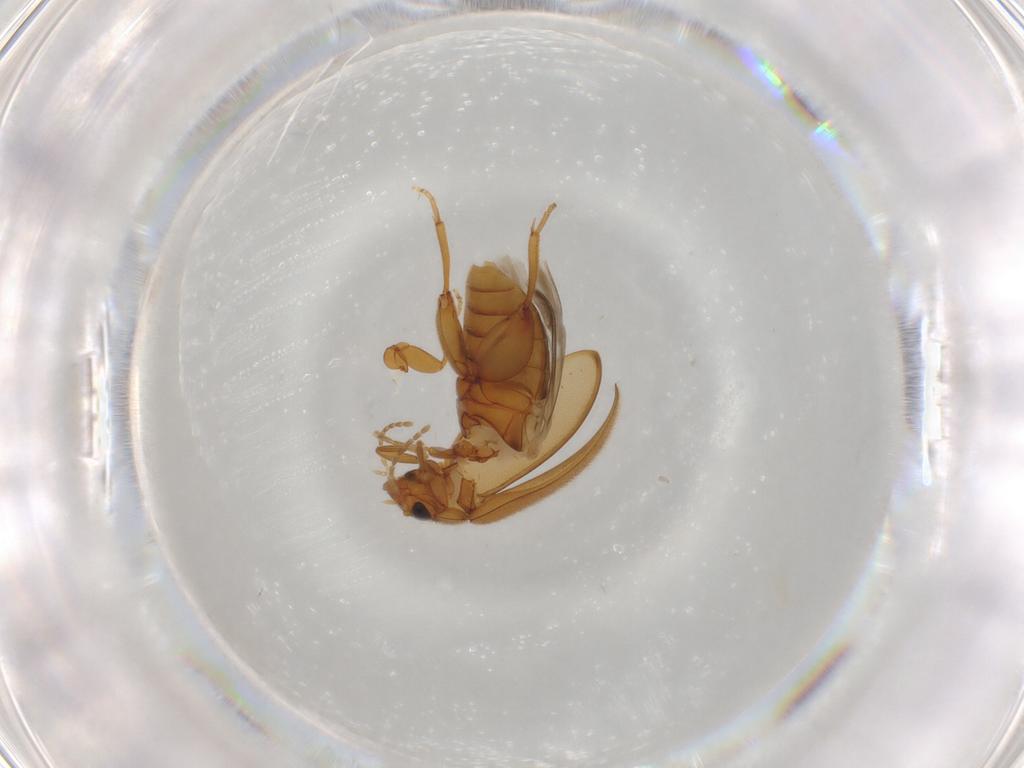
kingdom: Animalia
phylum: Arthropoda
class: Insecta
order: Coleoptera
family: Scirtidae
